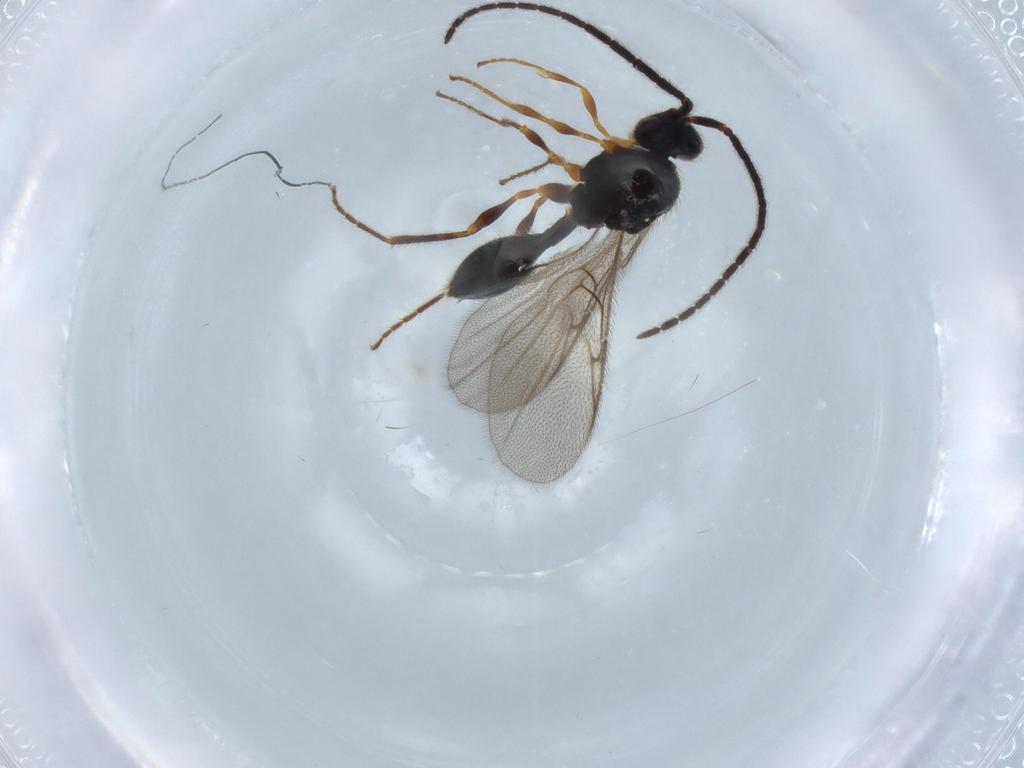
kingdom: Animalia
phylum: Arthropoda
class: Insecta
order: Hymenoptera
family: Diapriidae
